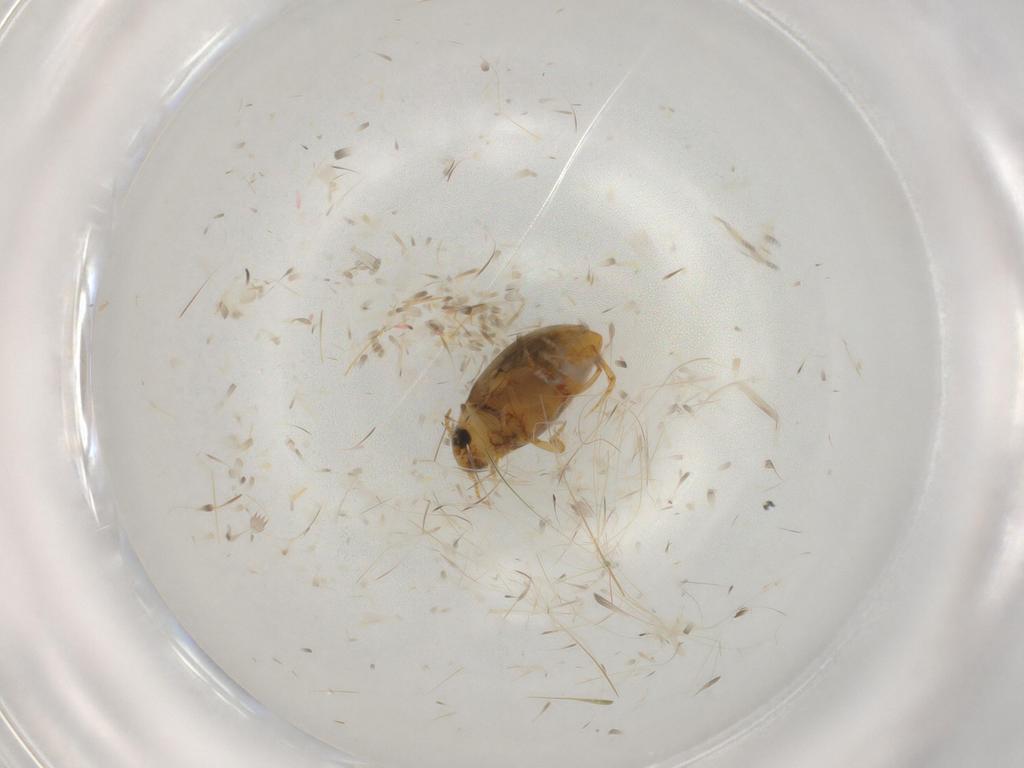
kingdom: Animalia
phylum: Arthropoda
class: Insecta
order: Coleoptera
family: Dytiscidae
